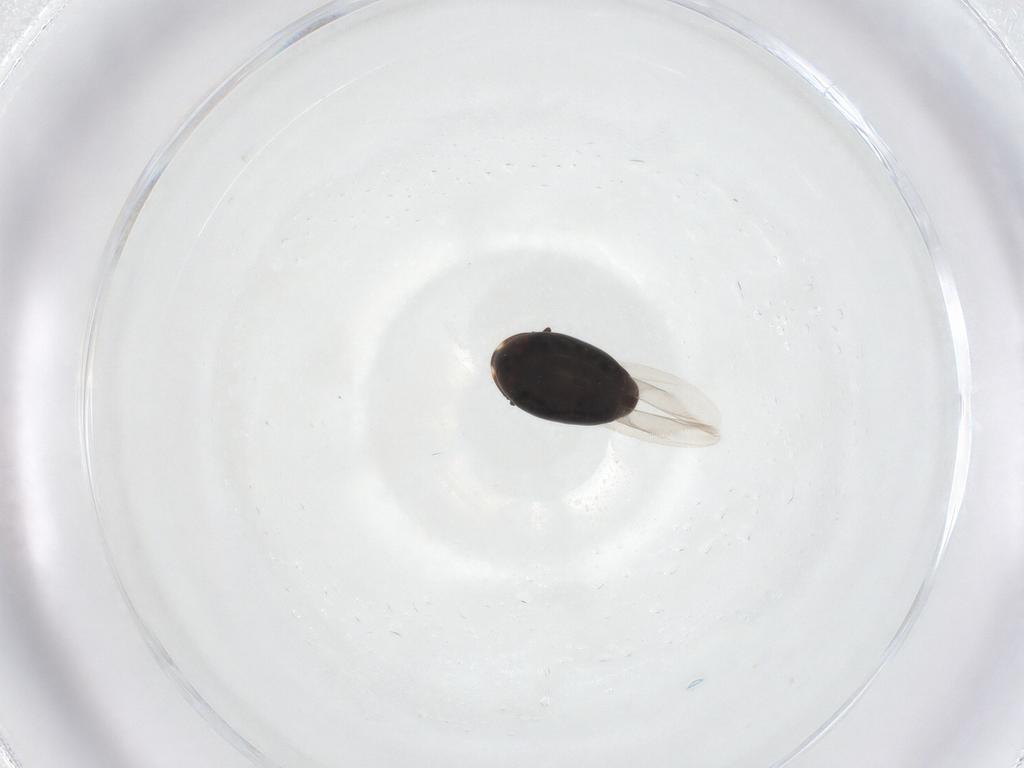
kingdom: Animalia
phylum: Arthropoda
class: Insecta
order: Coleoptera
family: Corylophidae
